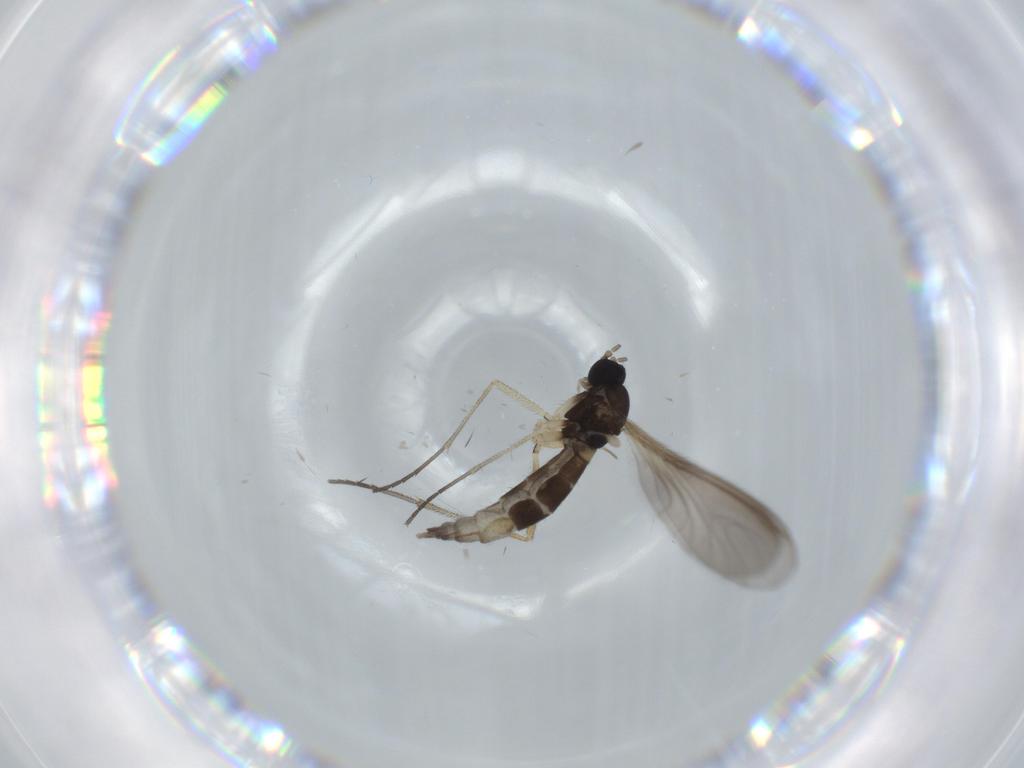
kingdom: Animalia
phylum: Arthropoda
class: Insecta
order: Diptera
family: Sciaridae
